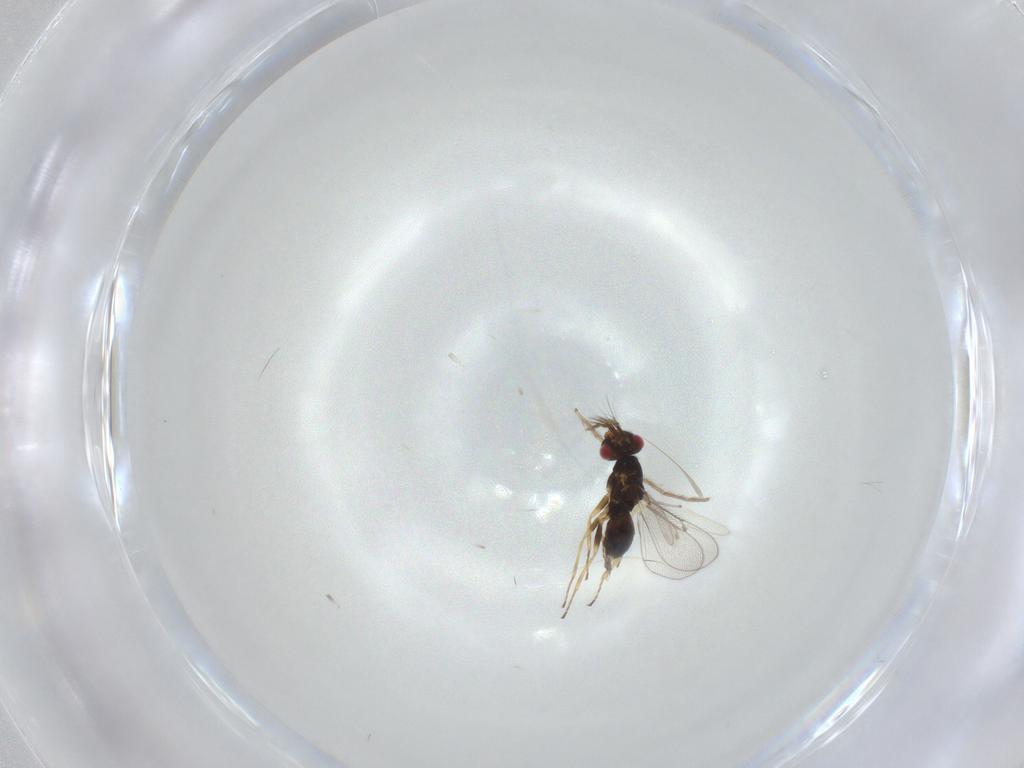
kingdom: Animalia
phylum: Arthropoda
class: Insecta
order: Hymenoptera
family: Eulophidae
